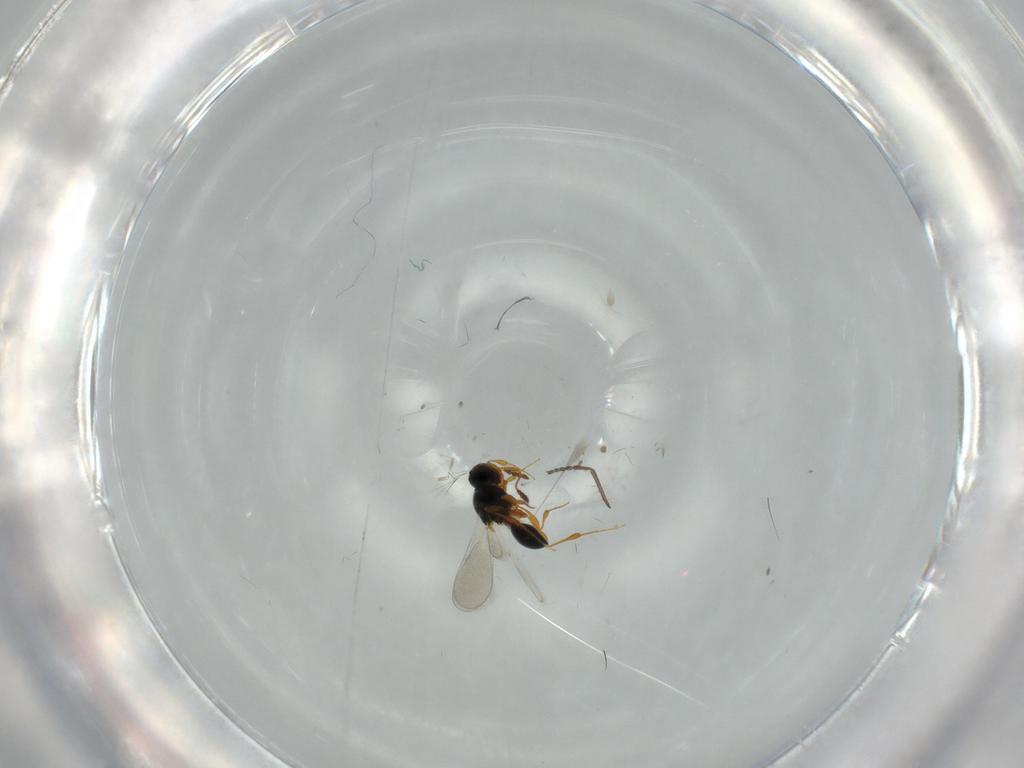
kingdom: Animalia
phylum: Arthropoda
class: Insecta
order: Hymenoptera
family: Platygastridae
